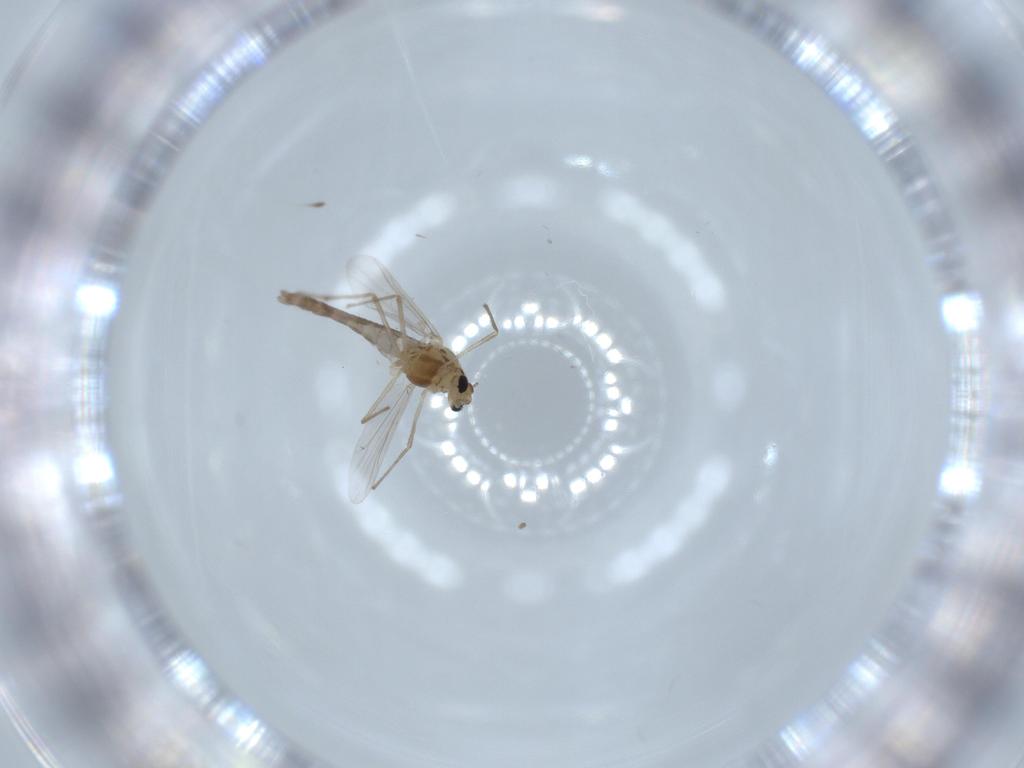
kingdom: Animalia
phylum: Arthropoda
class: Insecta
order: Diptera
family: Chironomidae
